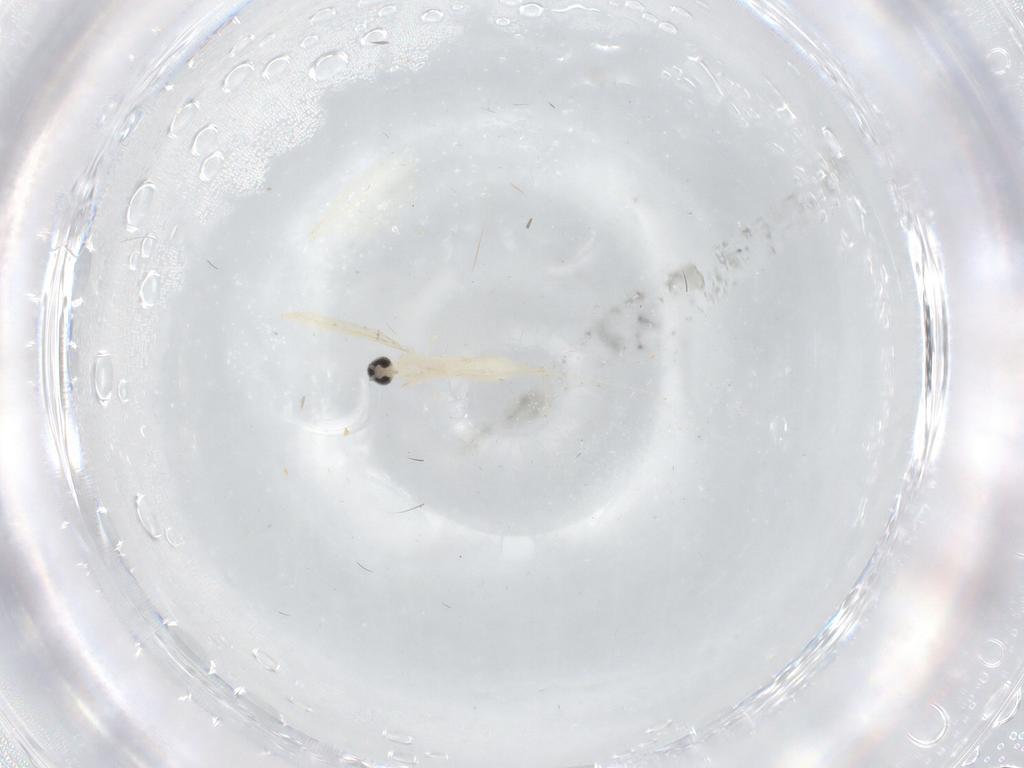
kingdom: Animalia
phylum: Arthropoda
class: Insecta
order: Diptera
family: Cecidomyiidae
